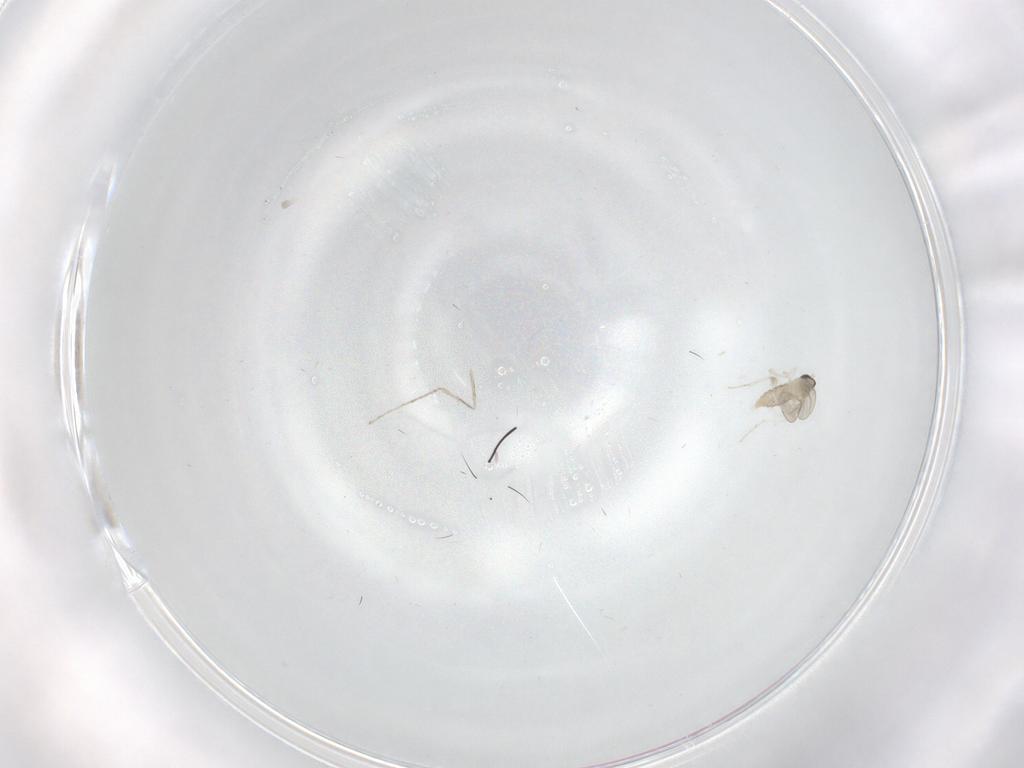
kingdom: Animalia
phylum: Arthropoda
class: Insecta
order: Diptera
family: Cecidomyiidae
